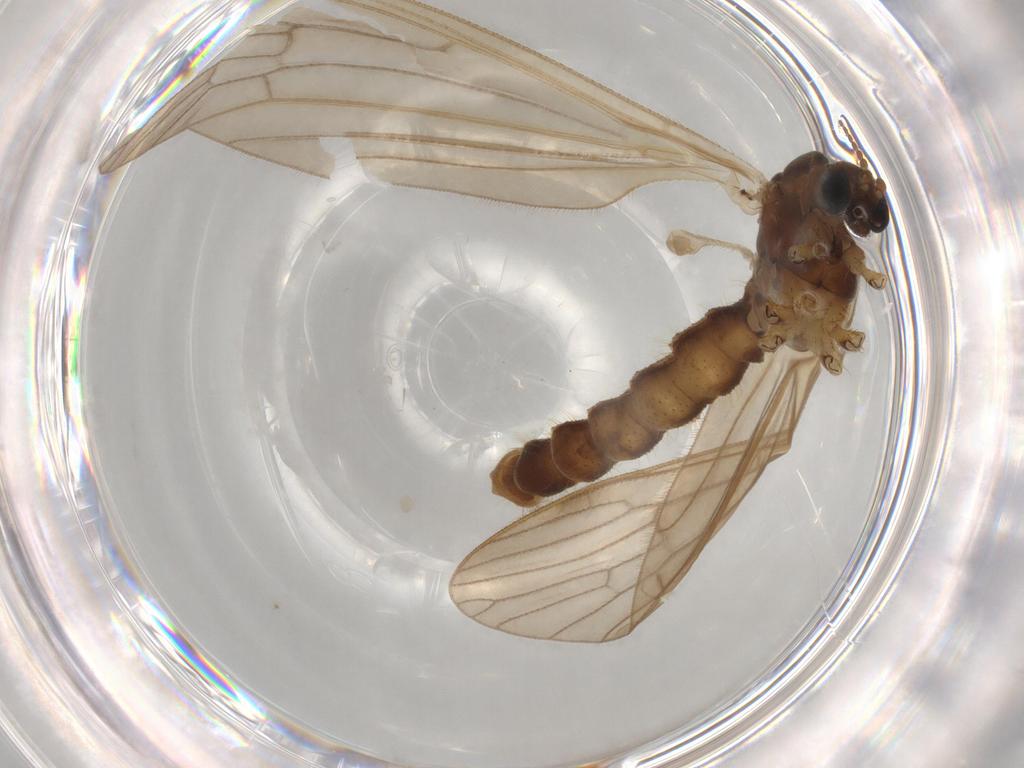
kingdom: Animalia
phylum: Arthropoda
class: Insecta
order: Diptera
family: Limoniidae
